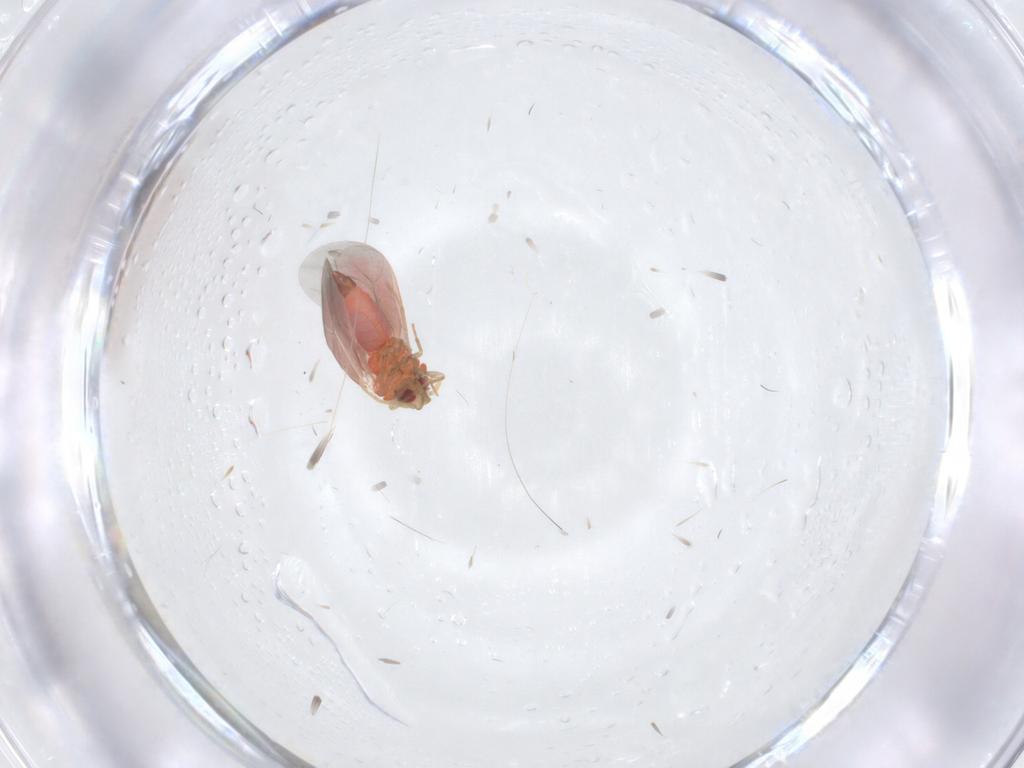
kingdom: Animalia
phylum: Arthropoda
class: Insecta
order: Hemiptera
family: Aleyrodidae
